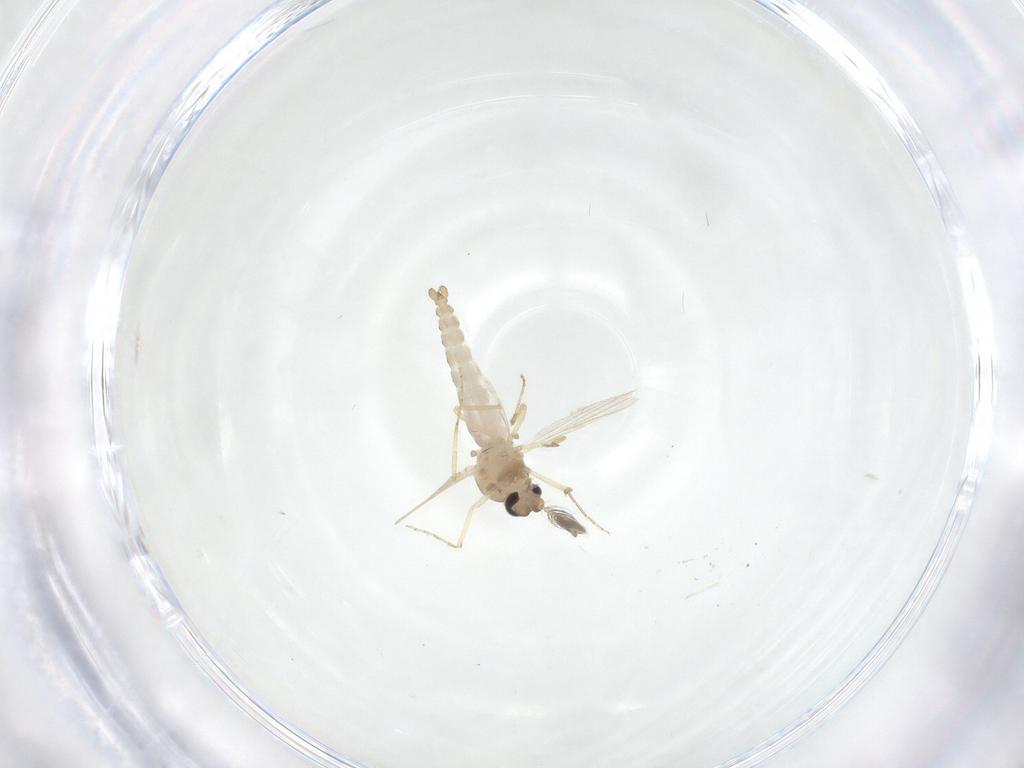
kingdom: Animalia
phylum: Arthropoda
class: Insecta
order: Diptera
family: Ceratopogonidae
